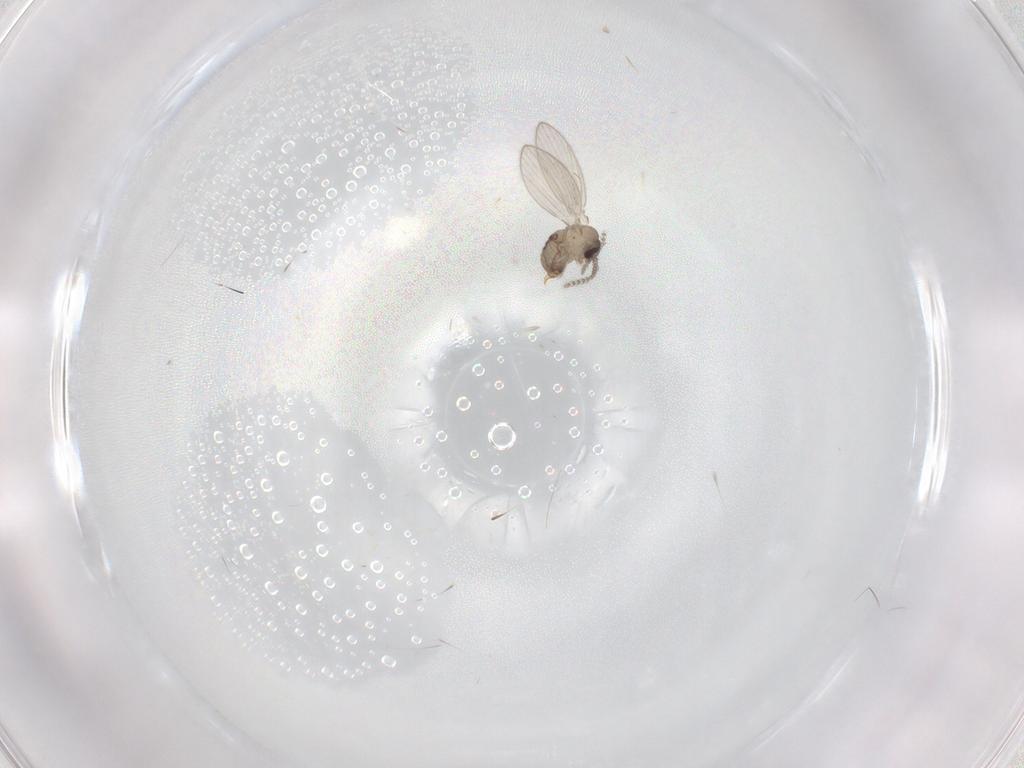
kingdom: Animalia
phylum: Arthropoda
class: Insecta
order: Diptera
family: Psychodidae
